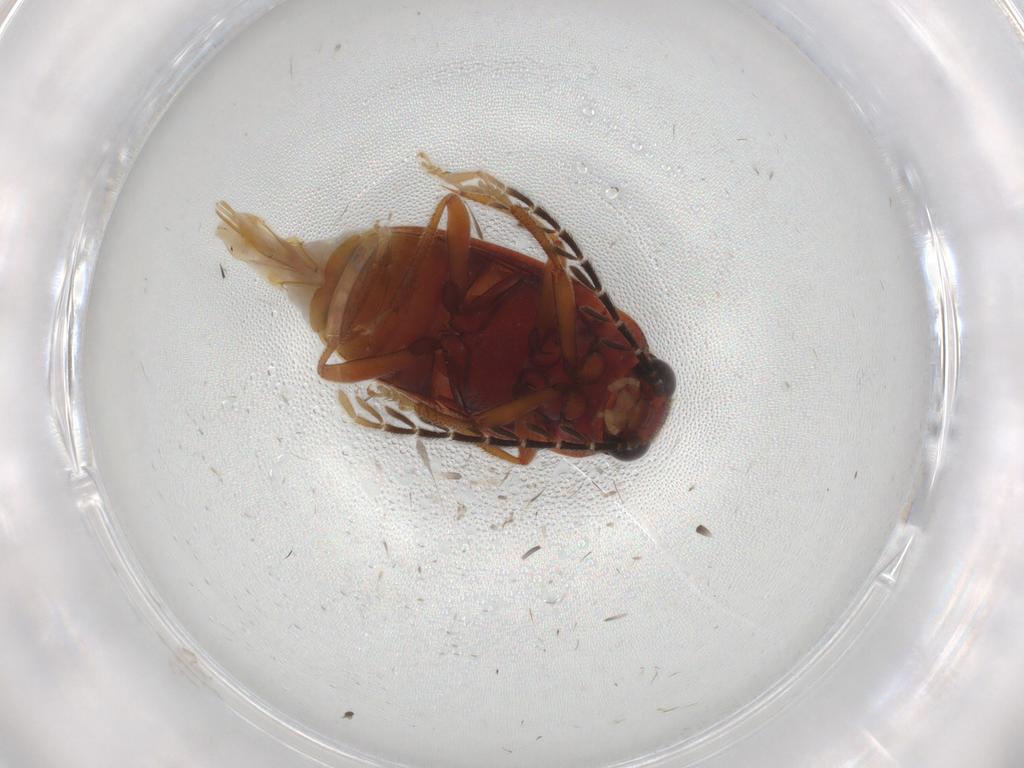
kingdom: Animalia
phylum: Arthropoda
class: Insecta
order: Coleoptera
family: Ptilodactylidae
